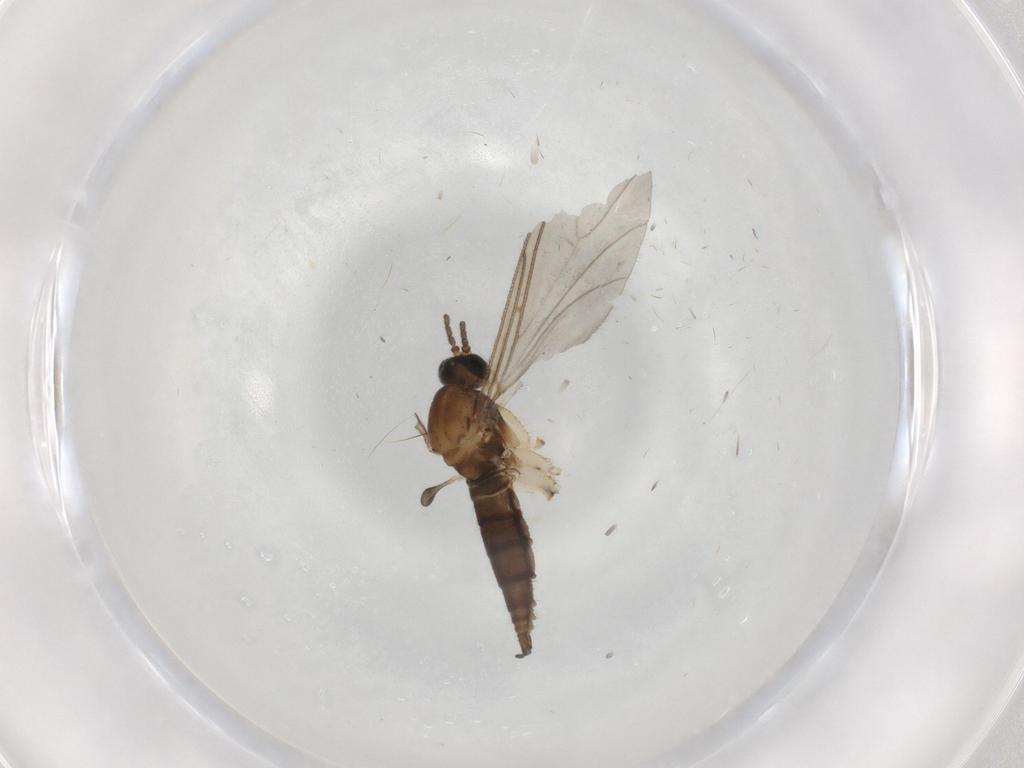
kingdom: Animalia
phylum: Arthropoda
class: Insecta
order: Diptera
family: Sciaridae
